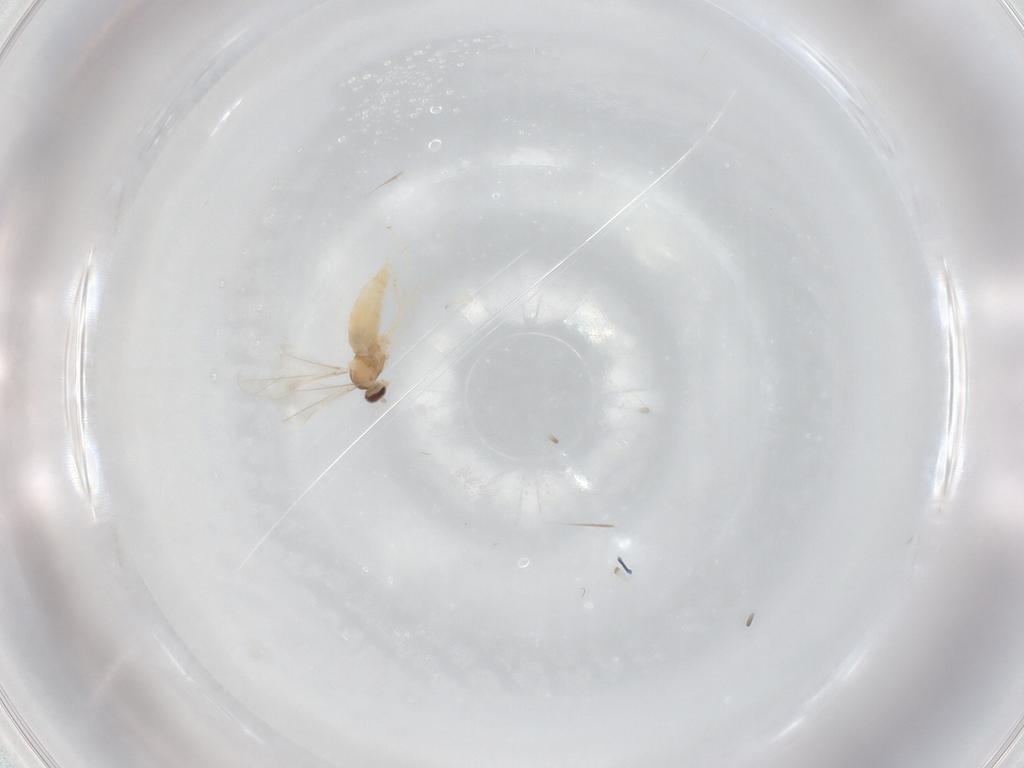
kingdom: Animalia
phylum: Arthropoda
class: Insecta
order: Diptera
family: Cecidomyiidae
